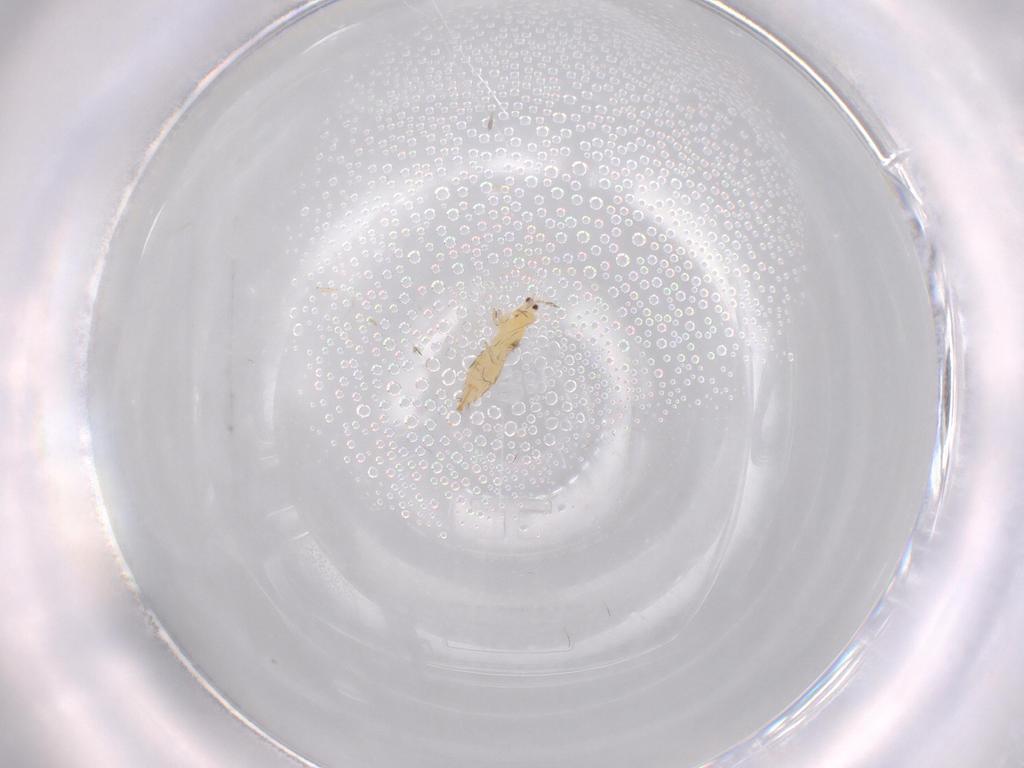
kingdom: Animalia
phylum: Arthropoda
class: Insecta
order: Thysanoptera
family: Thripidae
